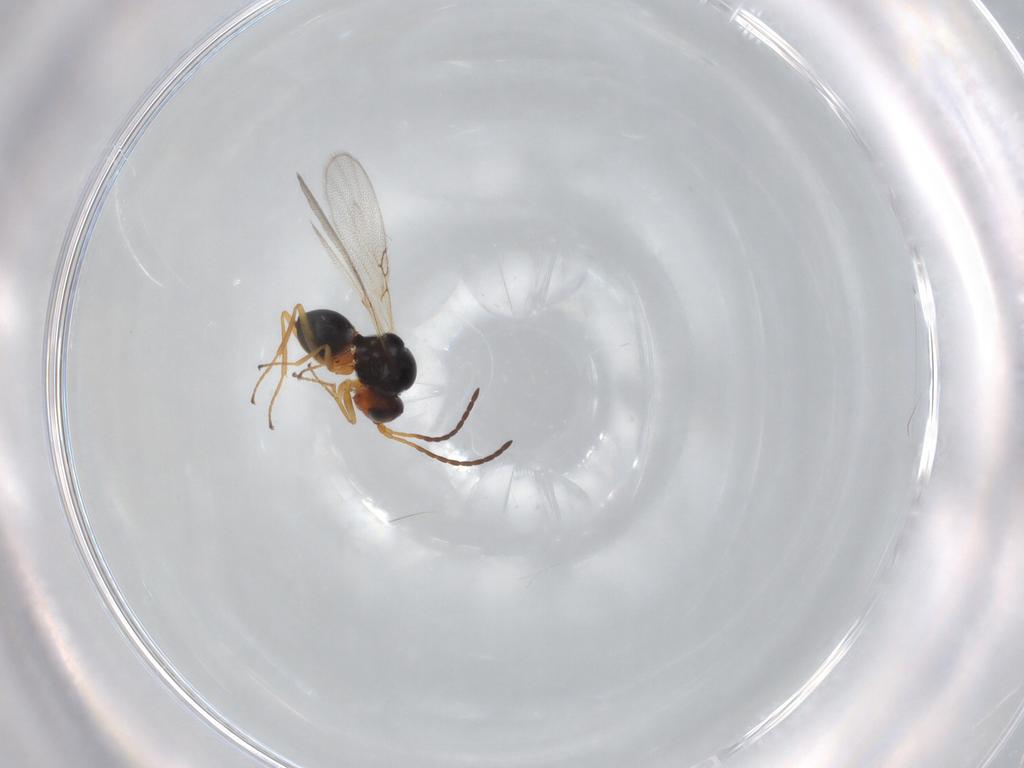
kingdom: Animalia
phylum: Arthropoda
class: Insecta
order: Hymenoptera
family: Figitidae
